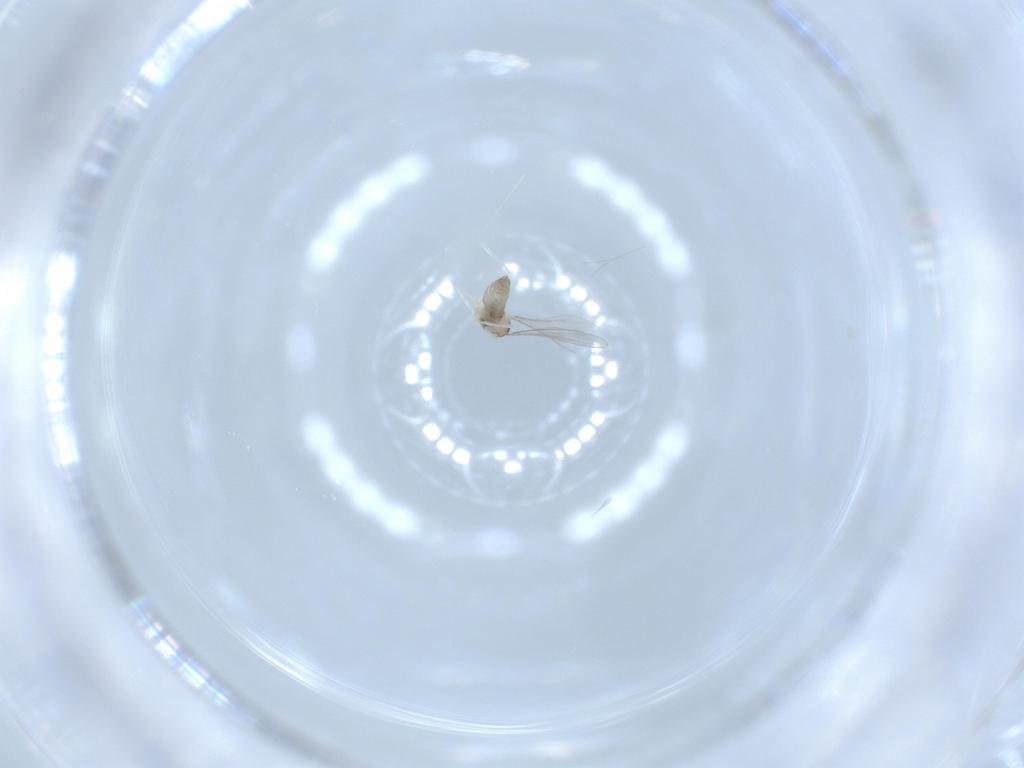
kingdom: Animalia
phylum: Arthropoda
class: Insecta
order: Diptera
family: Cecidomyiidae
